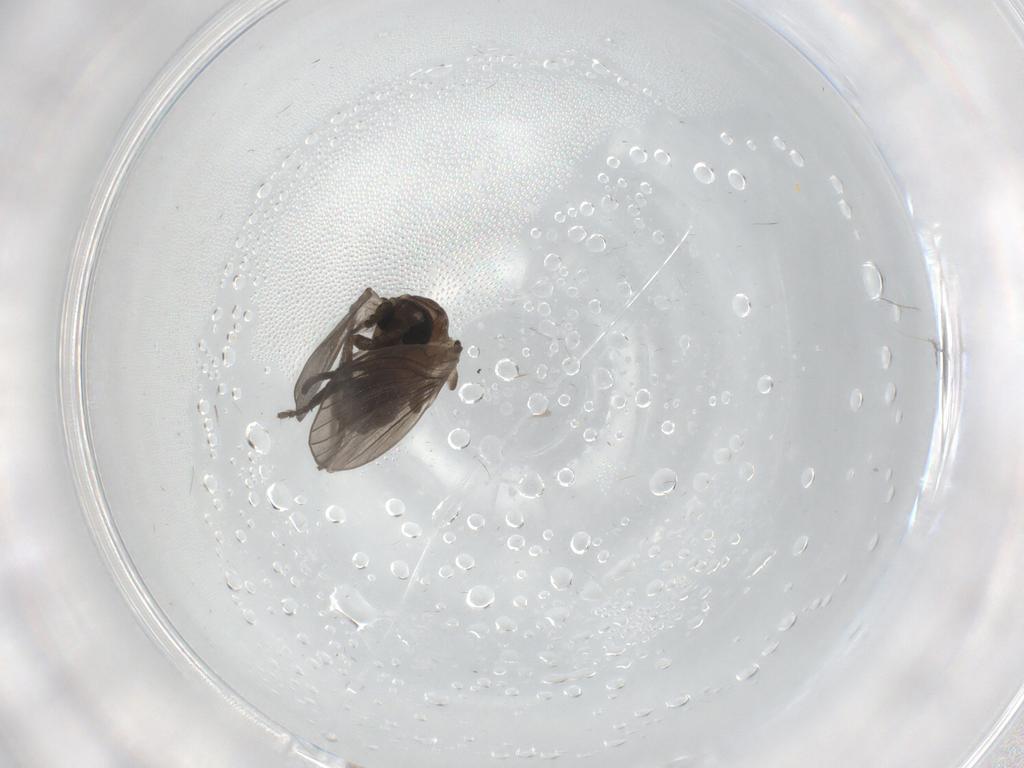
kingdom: Animalia
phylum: Arthropoda
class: Insecta
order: Diptera
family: Psychodidae
